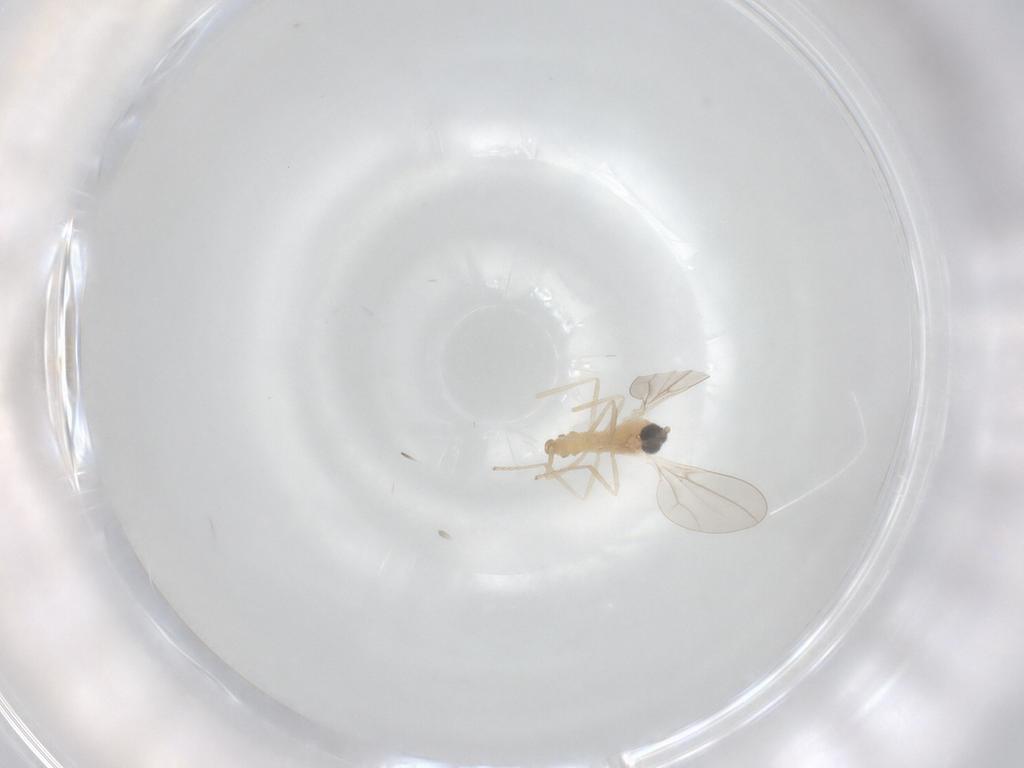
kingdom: Animalia
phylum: Arthropoda
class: Insecta
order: Diptera
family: Cecidomyiidae
